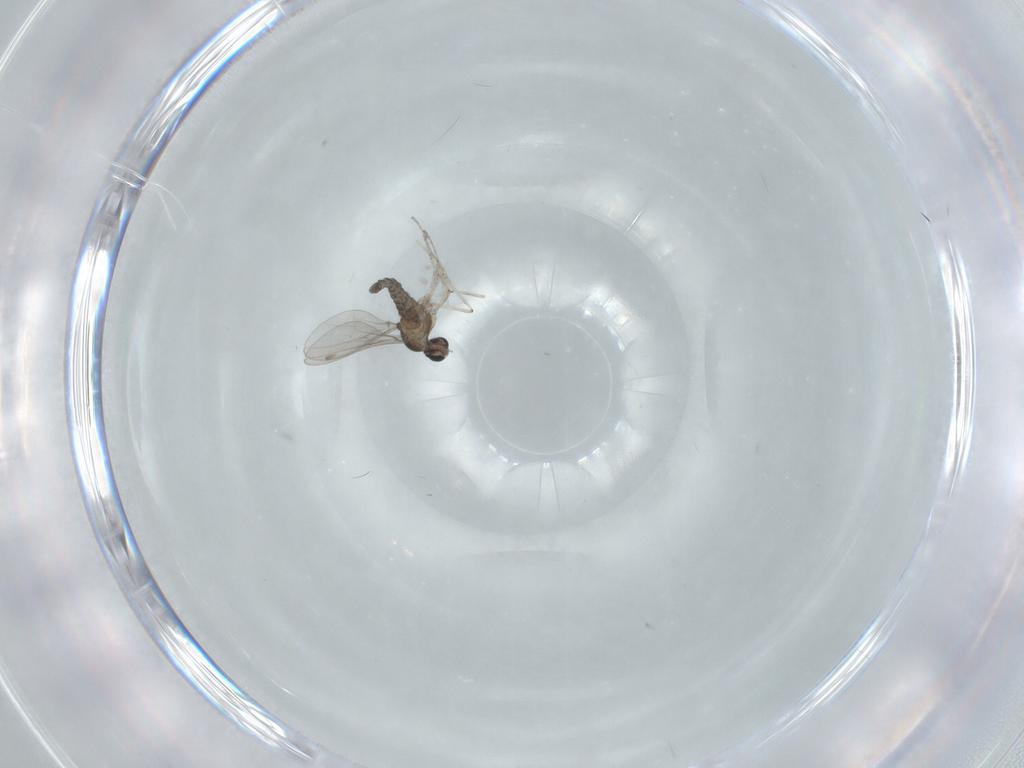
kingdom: Animalia
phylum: Arthropoda
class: Insecta
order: Diptera
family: Cecidomyiidae
